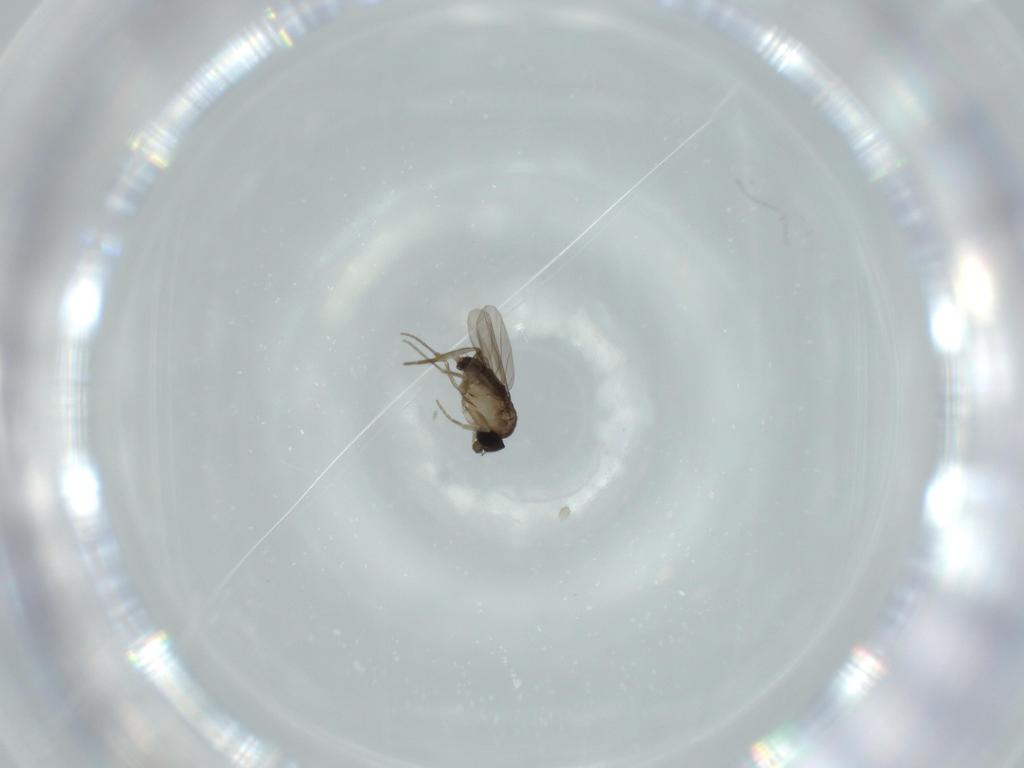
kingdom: Animalia
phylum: Arthropoda
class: Insecta
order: Diptera
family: Phoridae
